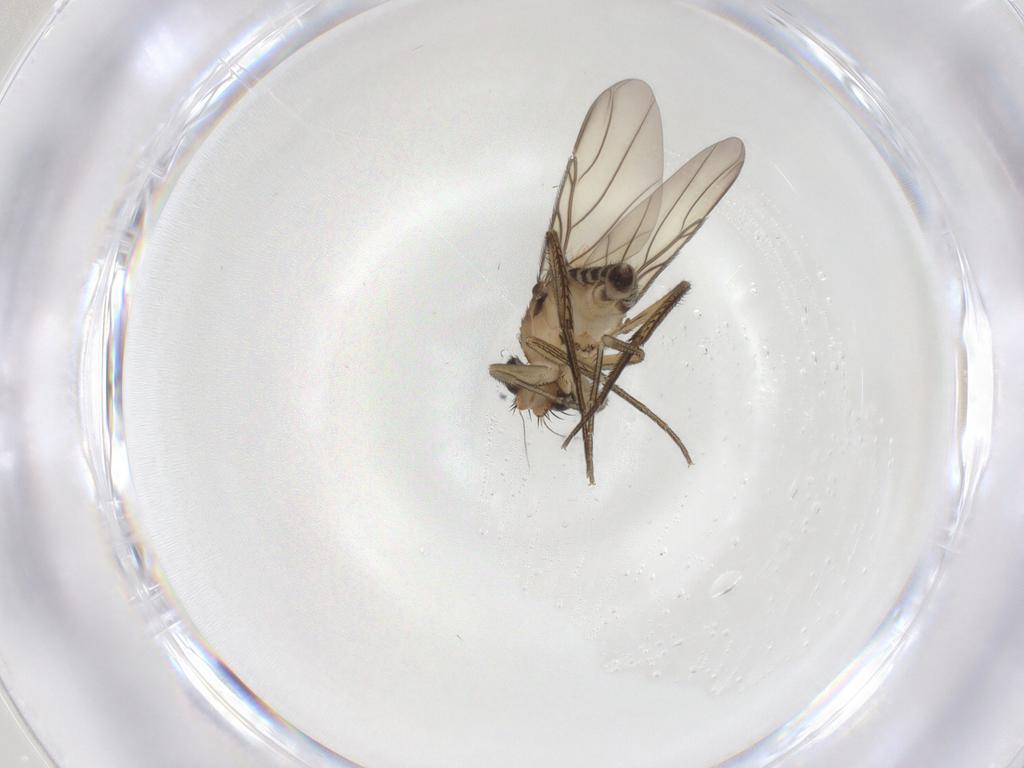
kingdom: Animalia
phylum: Arthropoda
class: Insecta
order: Diptera
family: Phoridae
